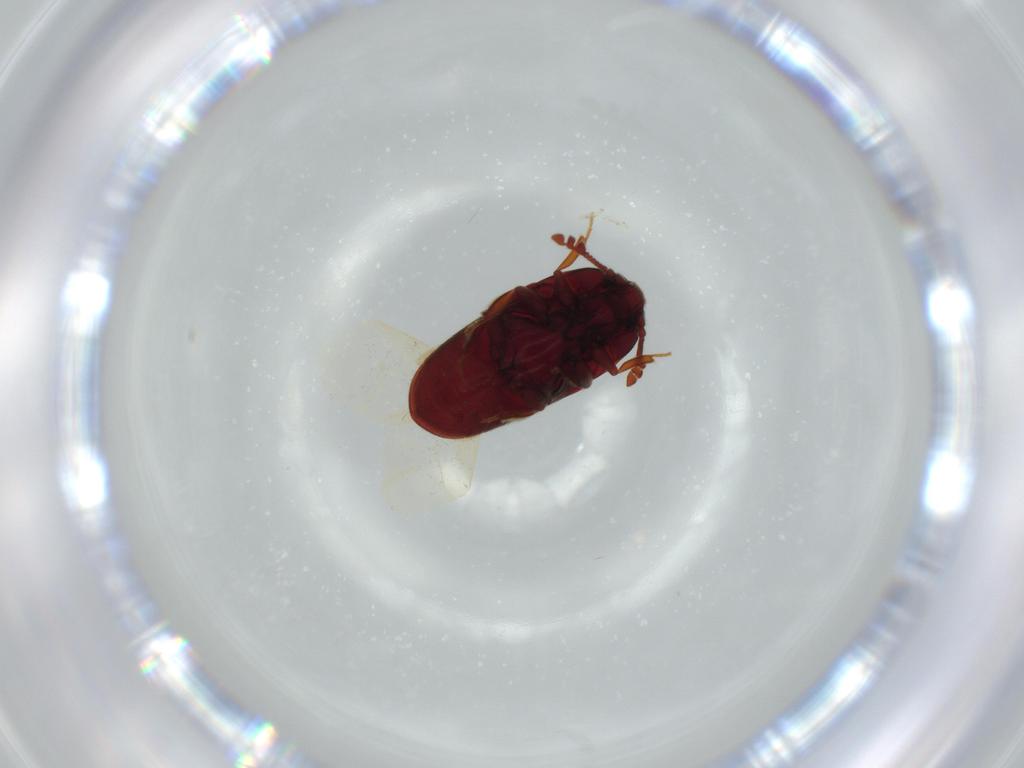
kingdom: Animalia
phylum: Arthropoda
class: Insecta
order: Coleoptera
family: Throscidae
